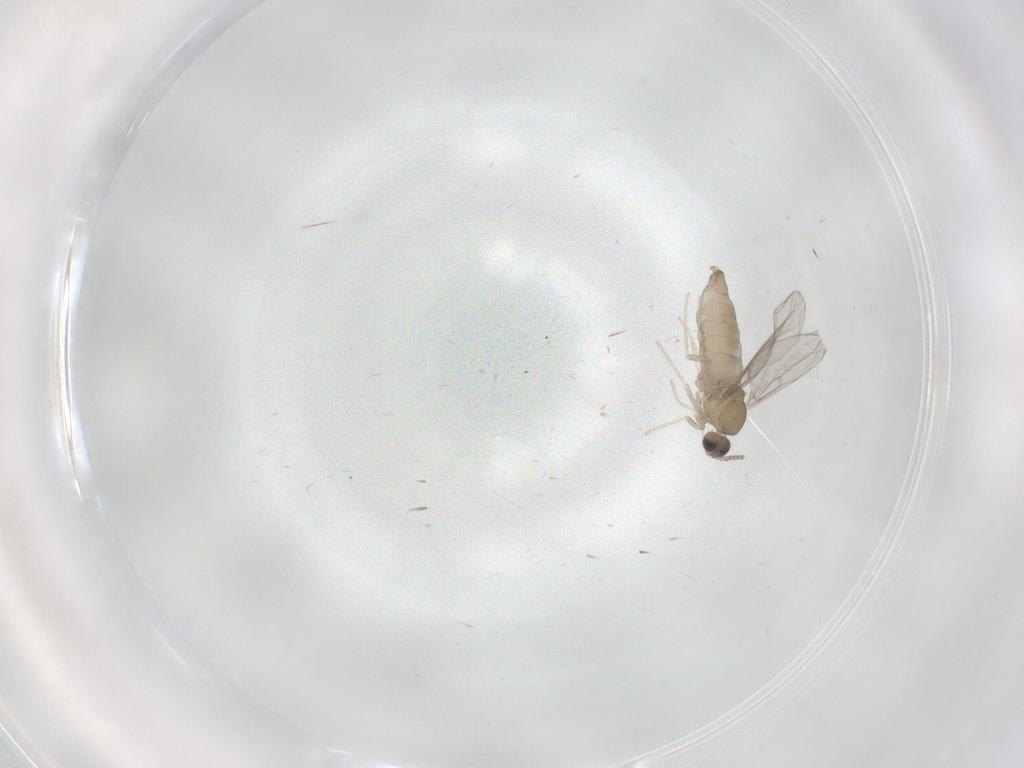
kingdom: Animalia
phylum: Arthropoda
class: Insecta
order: Diptera
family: Cecidomyiidae
